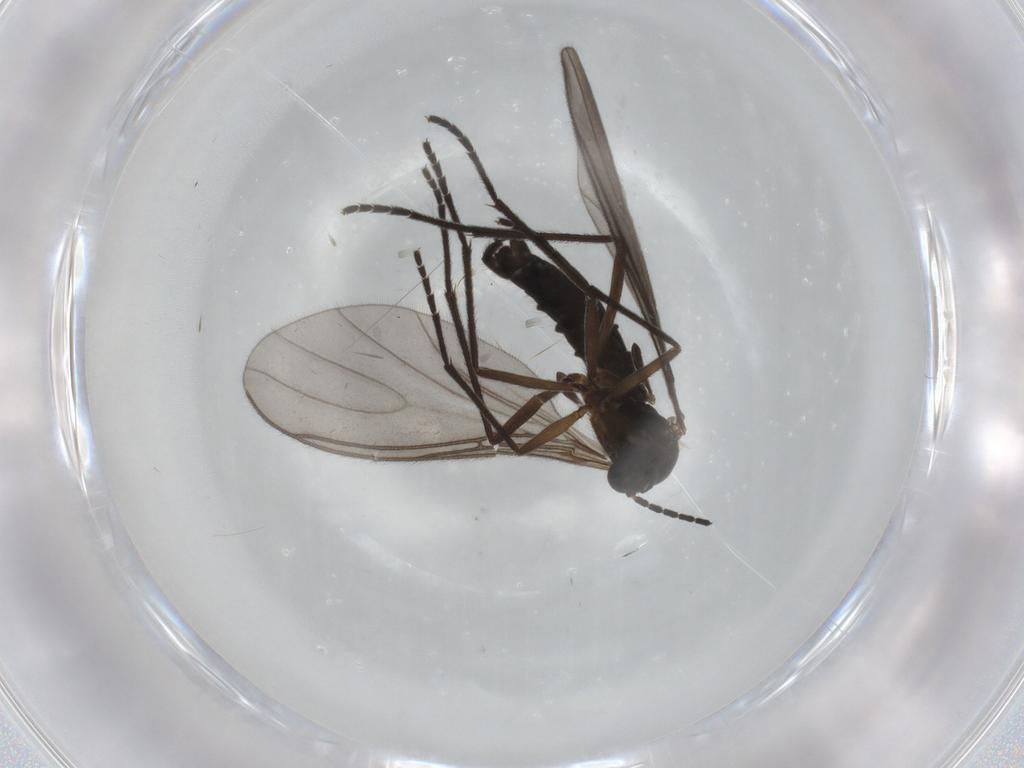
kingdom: Animalia
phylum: Arthropoda
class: Insecta
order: Diptera
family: Sciaridae
